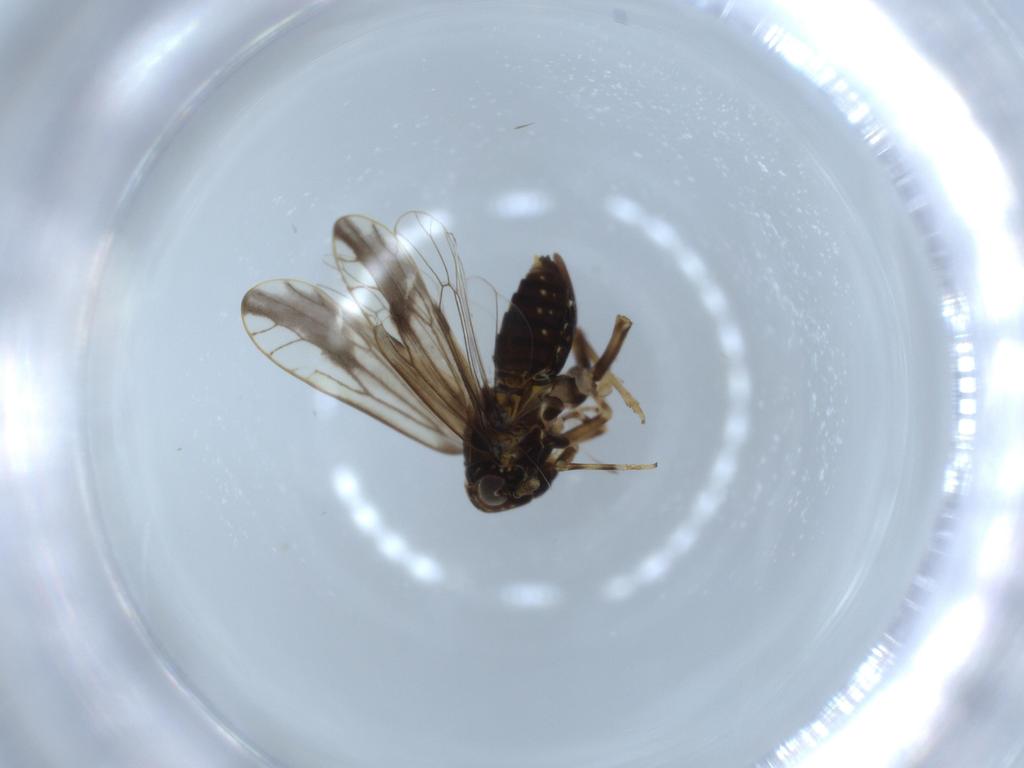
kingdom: Animalia
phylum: Arthropoda
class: Insecta
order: Hemiptera
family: Delphacidae
